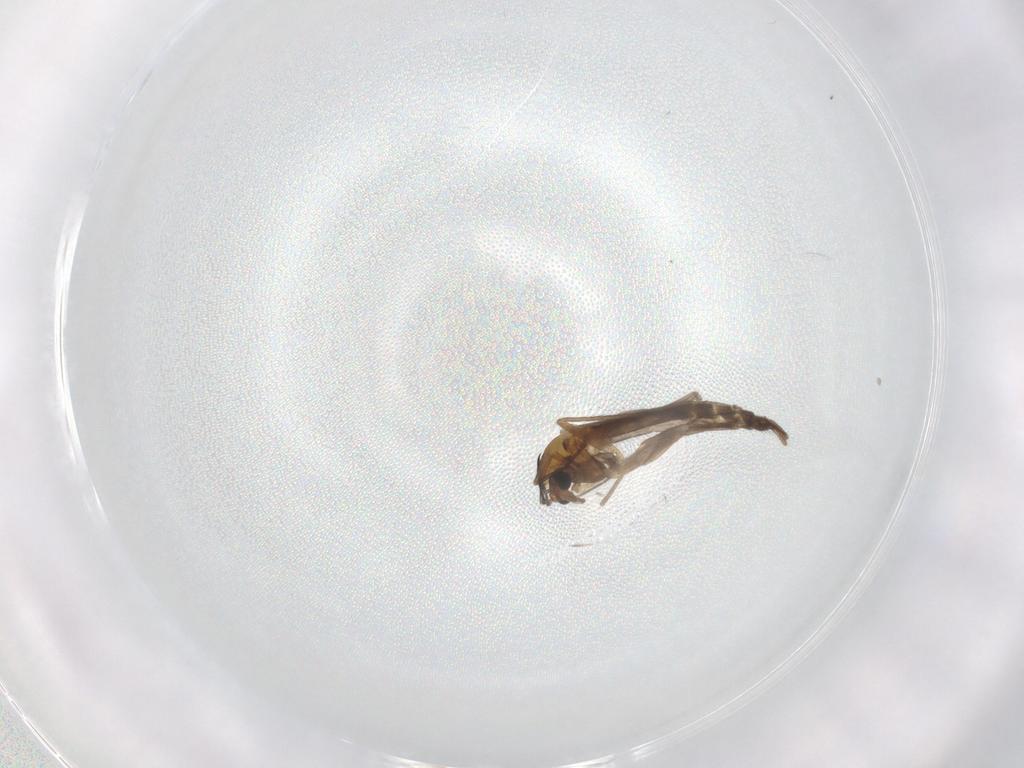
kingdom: Animalia
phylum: Arthropoda
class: Insecta
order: Diptera
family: Chironomidae
